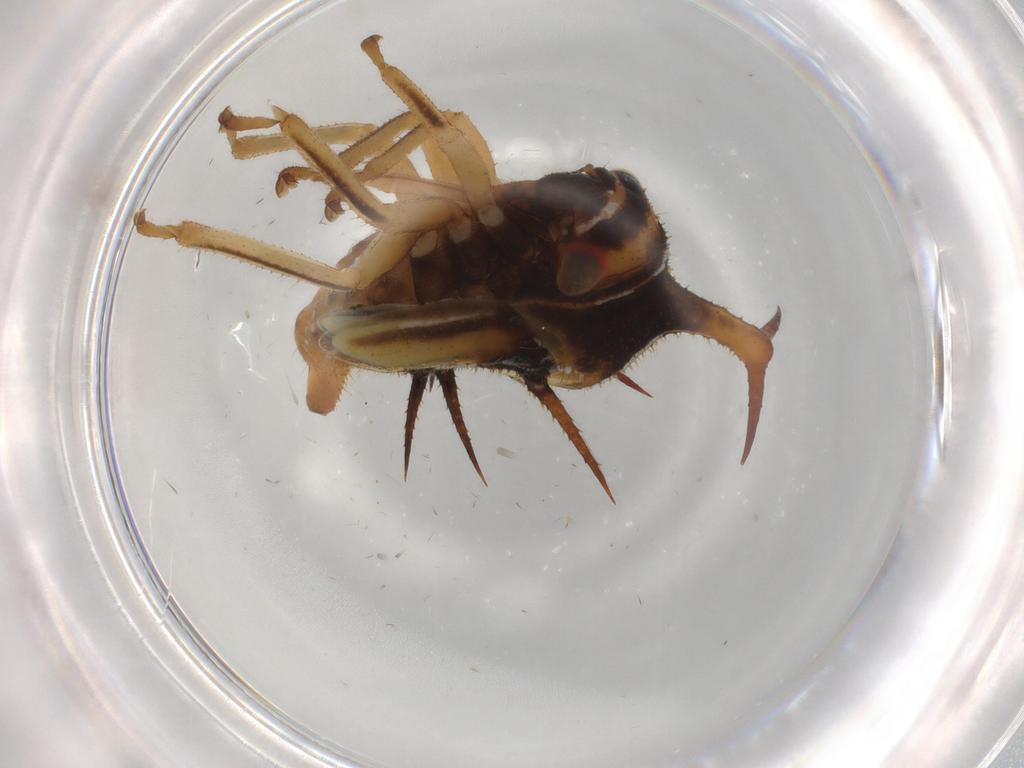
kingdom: Animalia
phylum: Arthropoda
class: Insecta
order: Hemiptera
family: Membracidae
